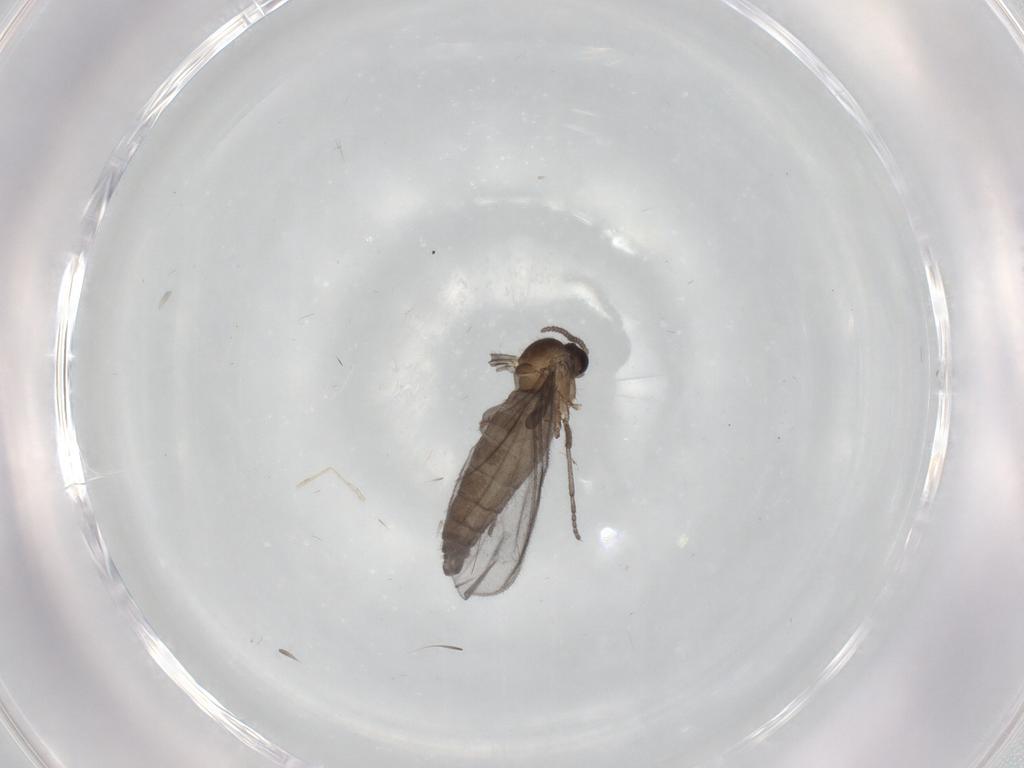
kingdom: Animalia
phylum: Arthropoda
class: Insecta
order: Diptera
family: Sciaridae
